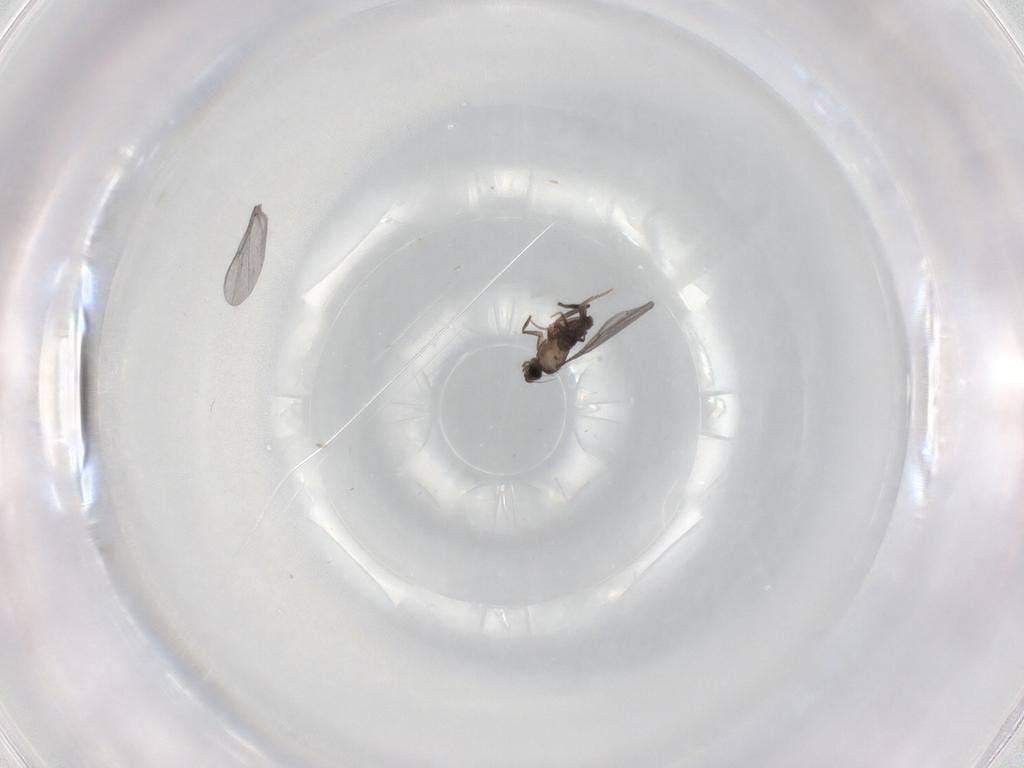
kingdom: Animalia
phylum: Arthropoda
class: Insecta
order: Diptera
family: Phoridae
